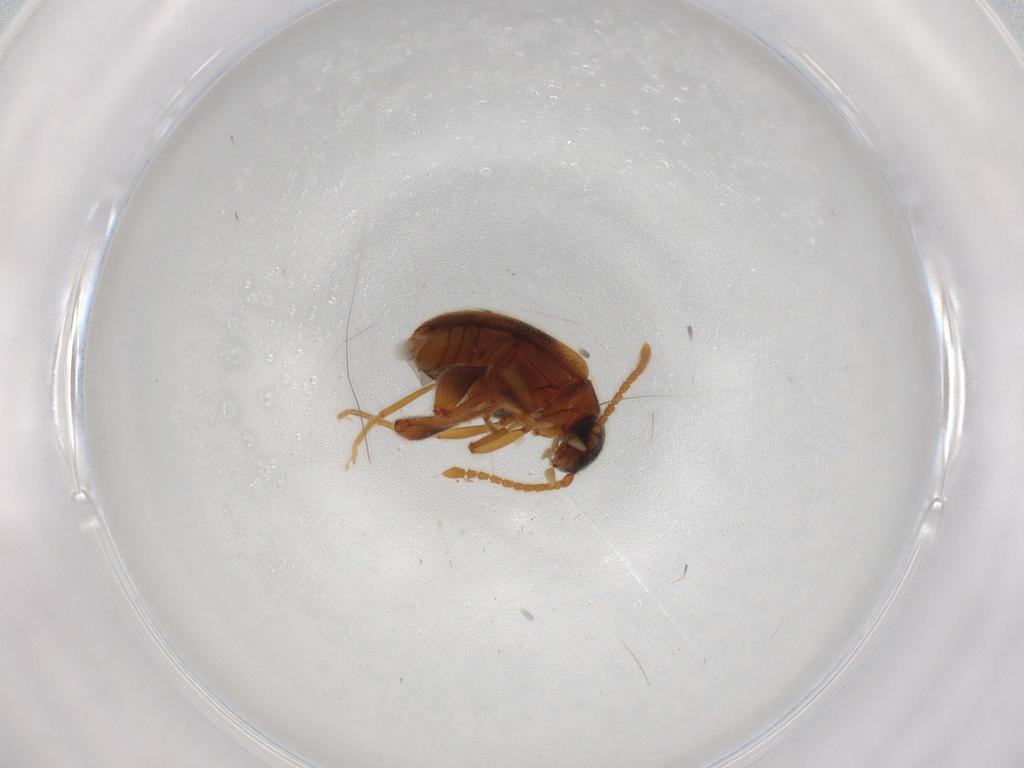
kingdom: Animalia
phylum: Arthropoda
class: Insecta
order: Coleoptera
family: Aderidae
